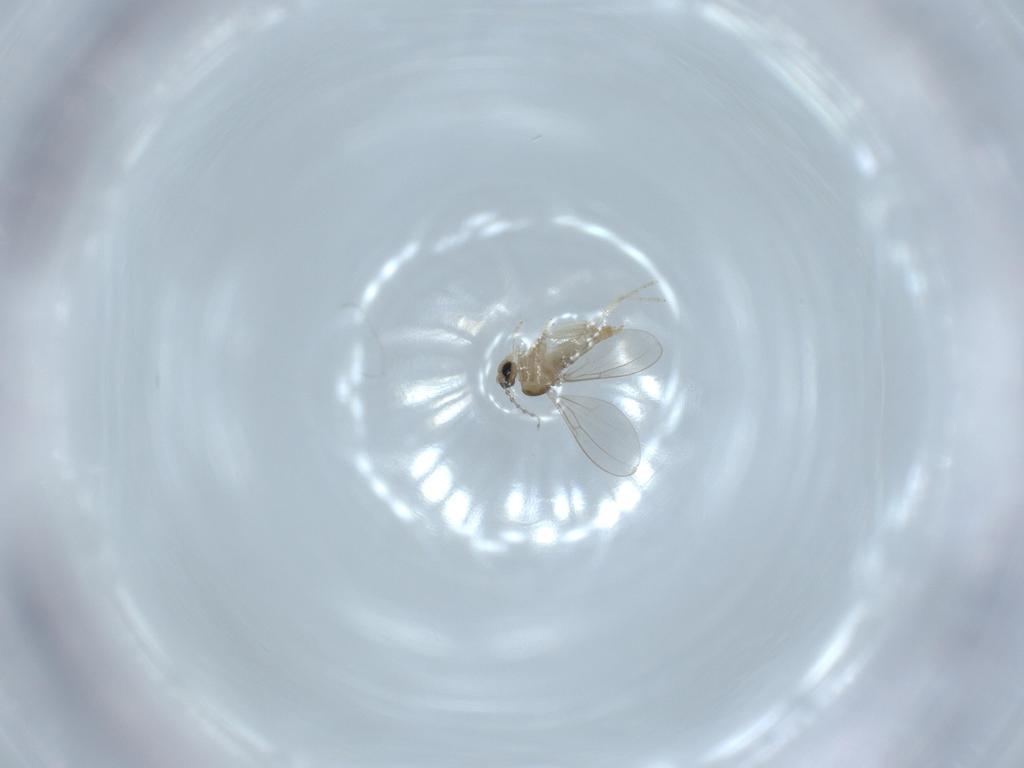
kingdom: Animalia
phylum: Arthropoda
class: Insecta
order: Diptera
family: Cecidomyiidae
